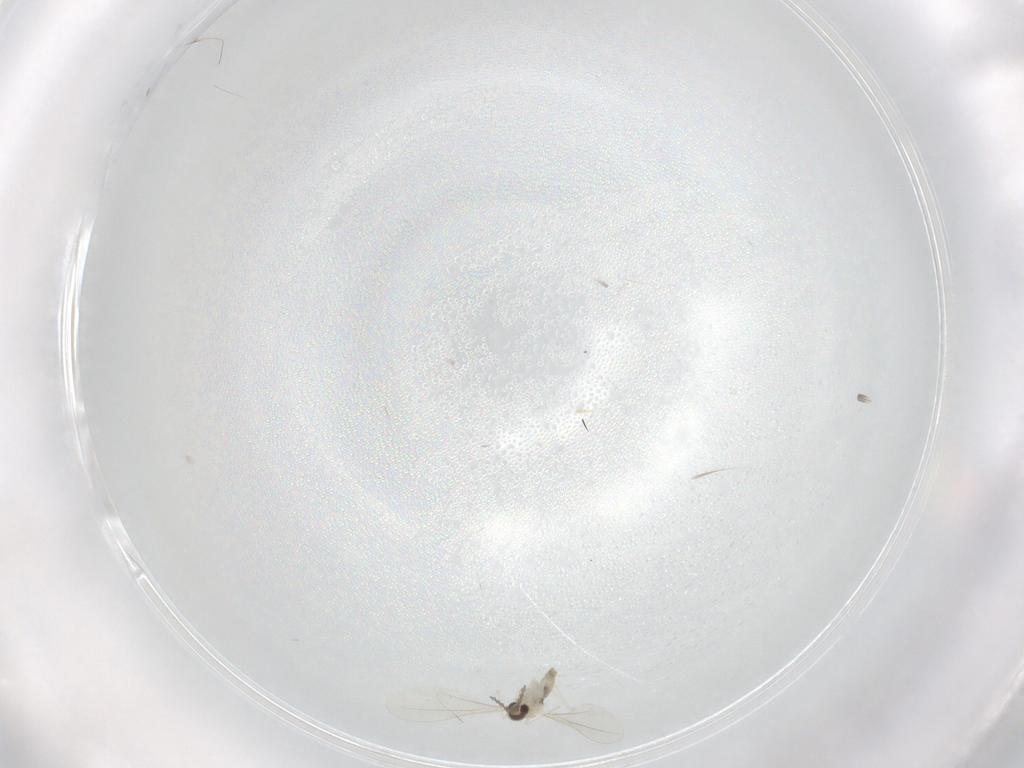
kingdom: Animalia
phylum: Arthropoda
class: Insecta
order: Diptera
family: Cecidomyiidae
